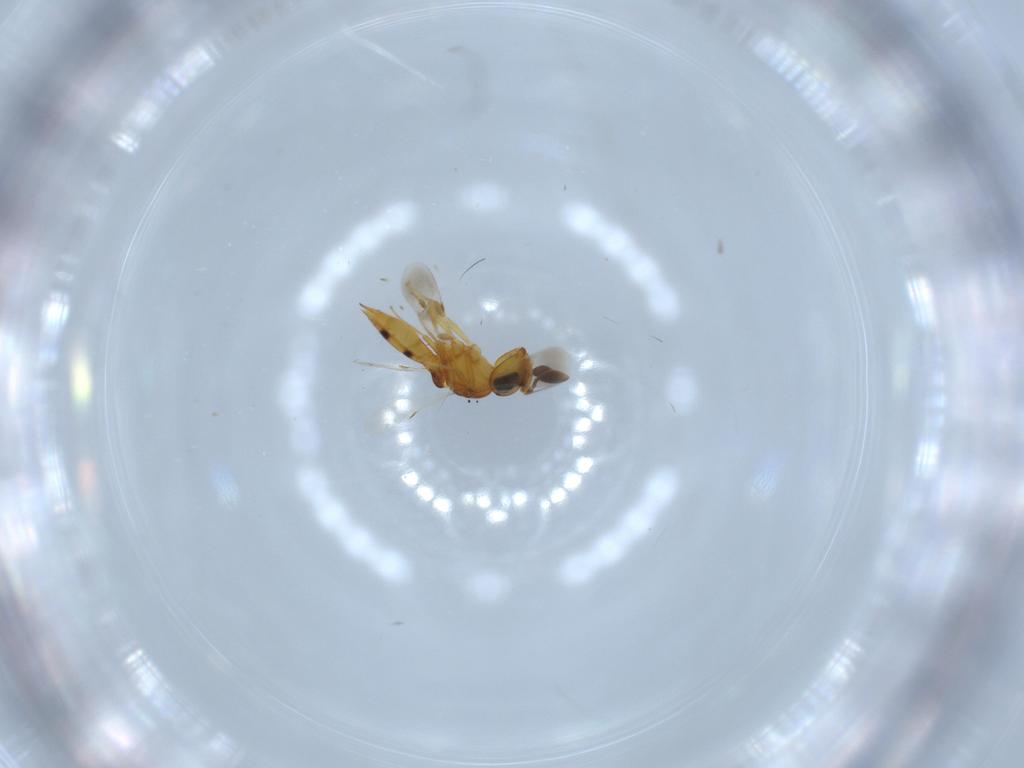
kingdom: Animalia
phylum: Arthropoda
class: Insecta
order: Hymenoptera
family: Scelionidae
